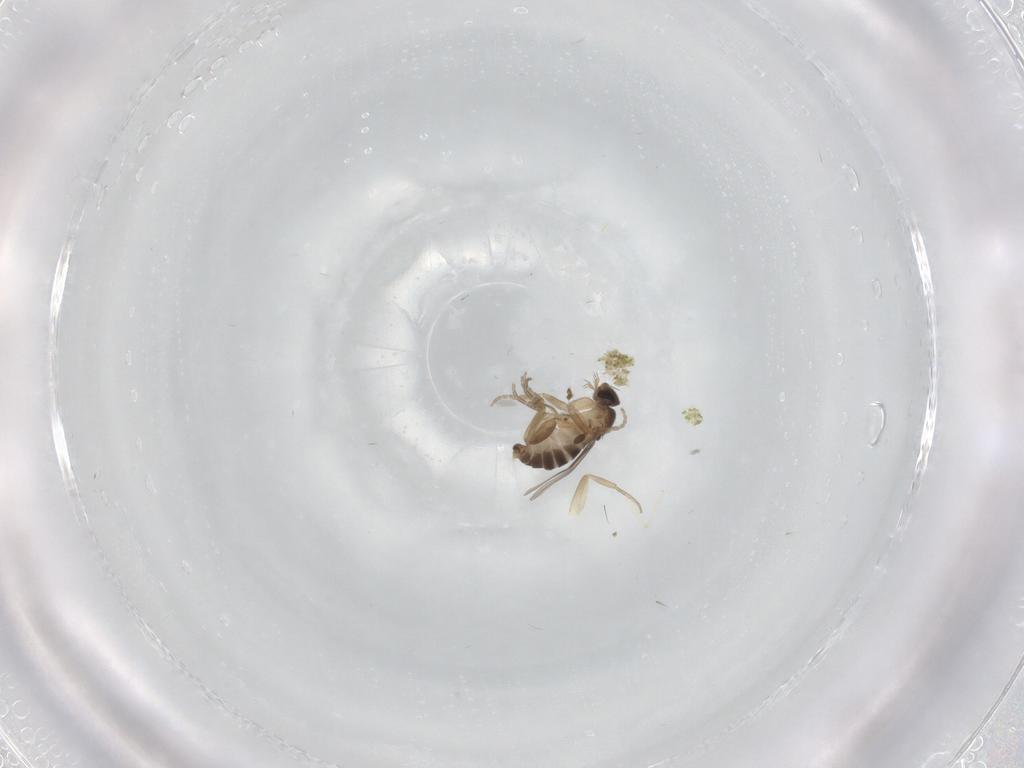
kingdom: Animalia
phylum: Arthropoda
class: Insecta
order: Diptera
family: Phoridae
